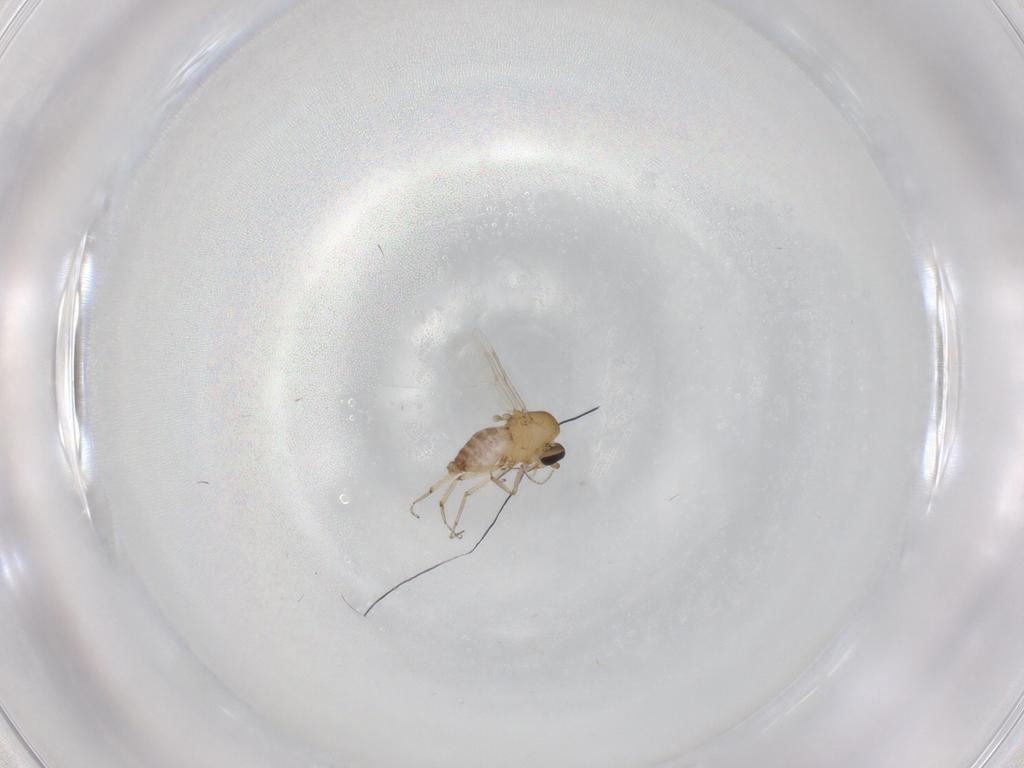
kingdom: Animalia
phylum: Arthropoda
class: Insecta
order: Diptera
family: Ceratopogonidae
